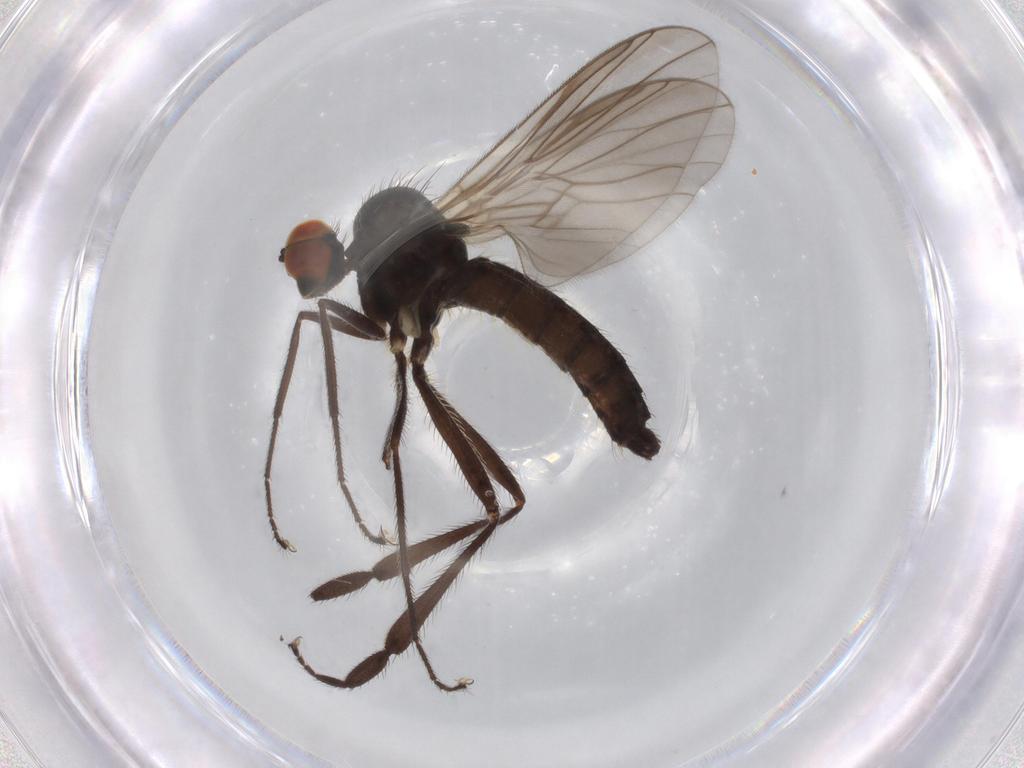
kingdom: Animalia
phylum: Arthropoda
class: Insecta
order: Diptera
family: Hybotidae
